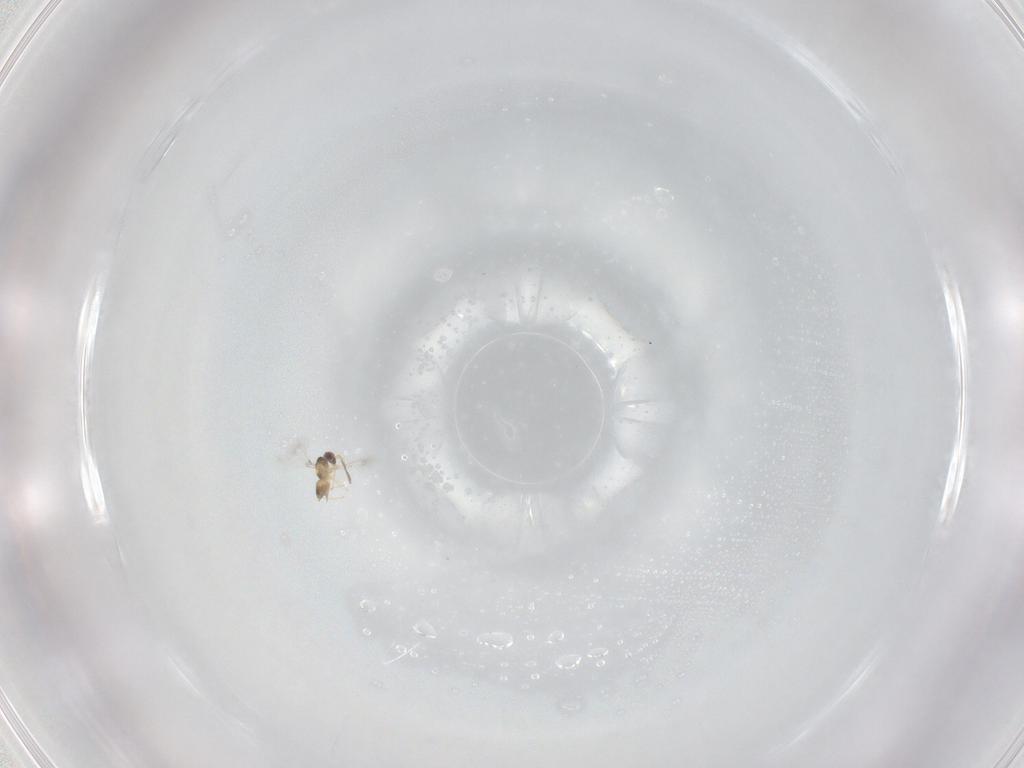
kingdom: Animalia
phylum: Arthropoda
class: Insecta
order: Hymenoptera
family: Mymaridae
